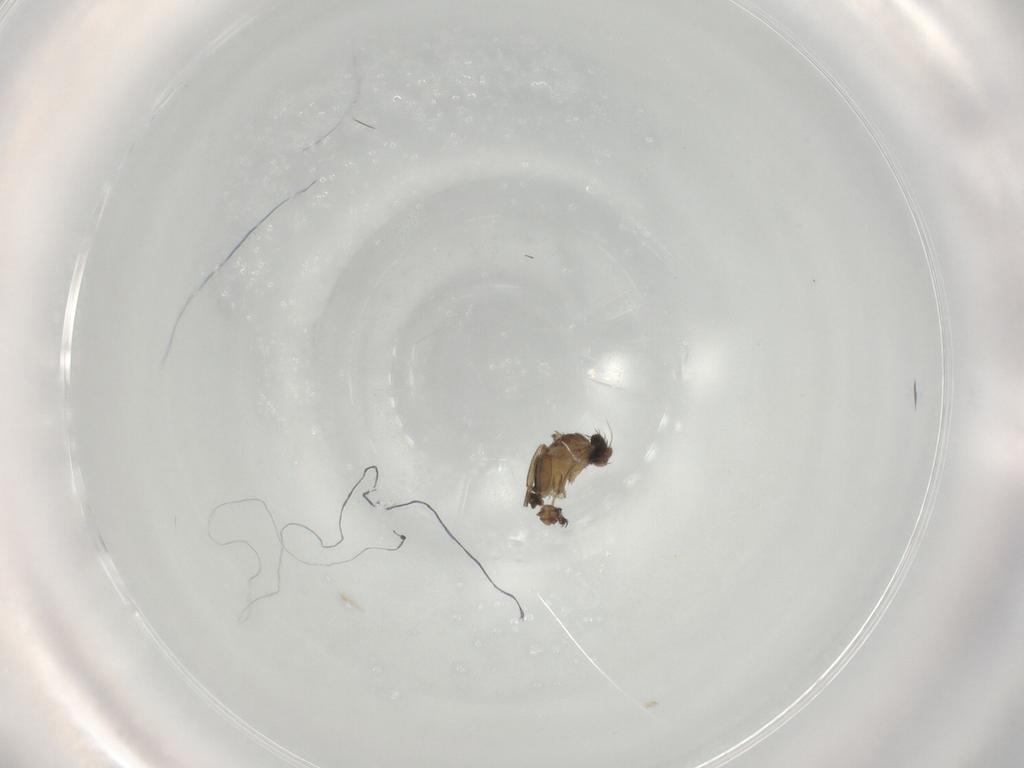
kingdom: Animalia
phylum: Arthropoda
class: Insecta
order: Diptera
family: Phoridae
